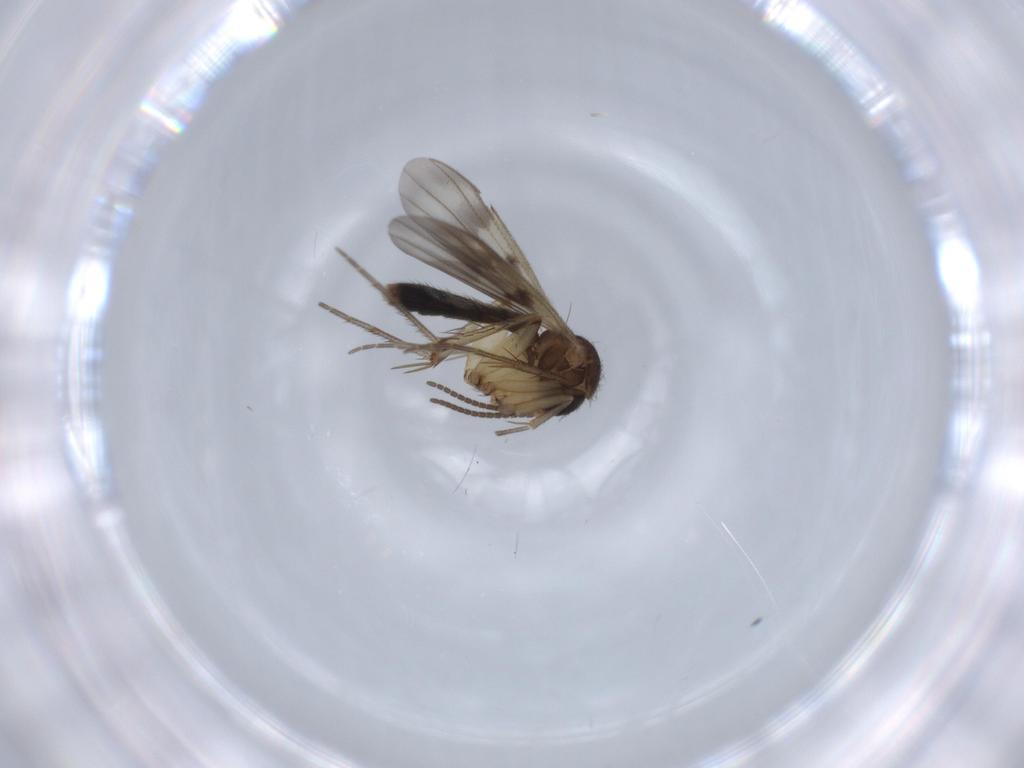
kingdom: Animalia
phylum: Arthropoda
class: Insecta
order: Diptera
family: Mycetophilidae
